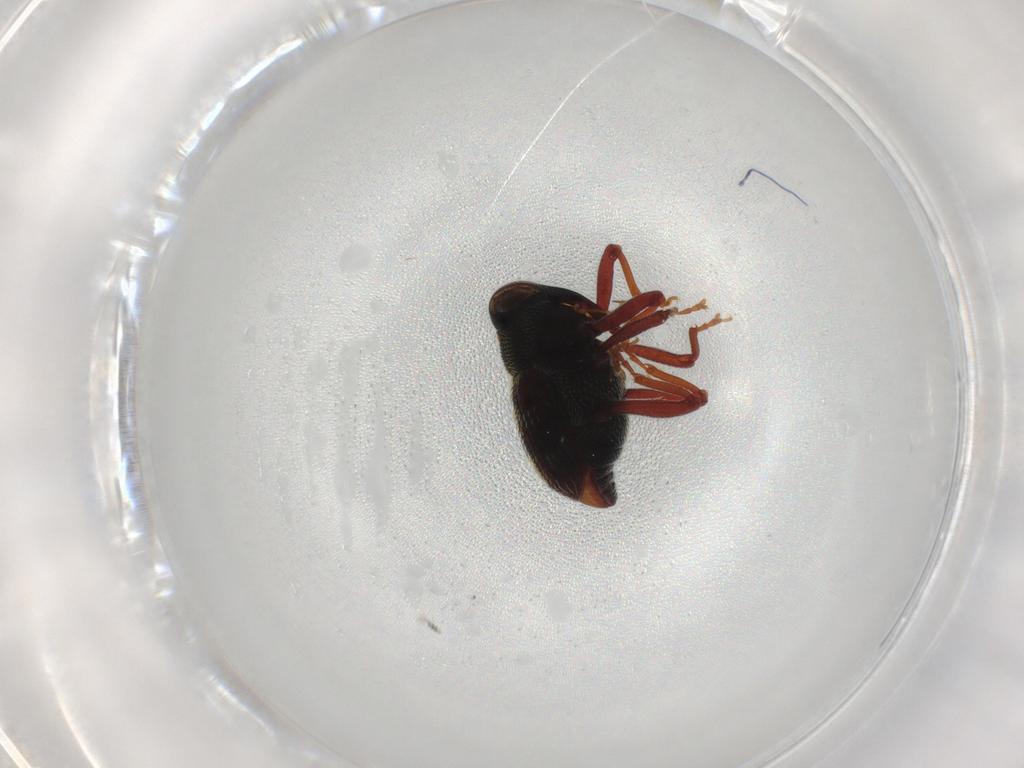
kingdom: Animalia
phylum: Arthropoda
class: Insecta
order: Coleoptera
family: Curculionidae
